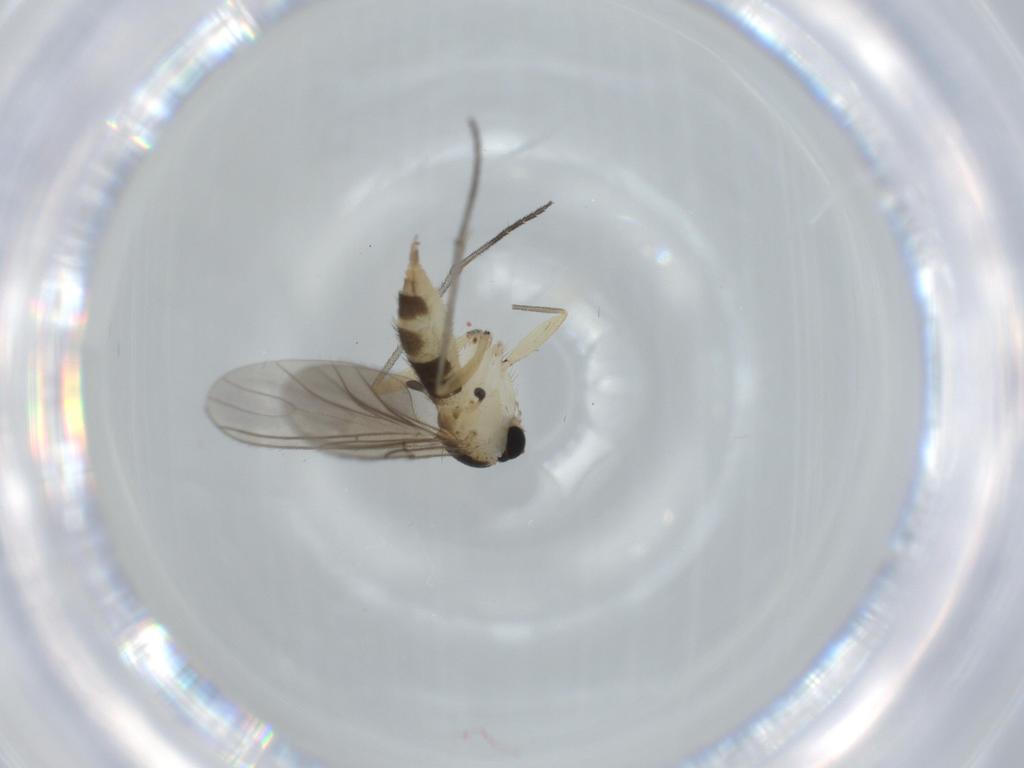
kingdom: Animalia
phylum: Arthropoda
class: Insecta
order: Diptera
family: Sciaridae
